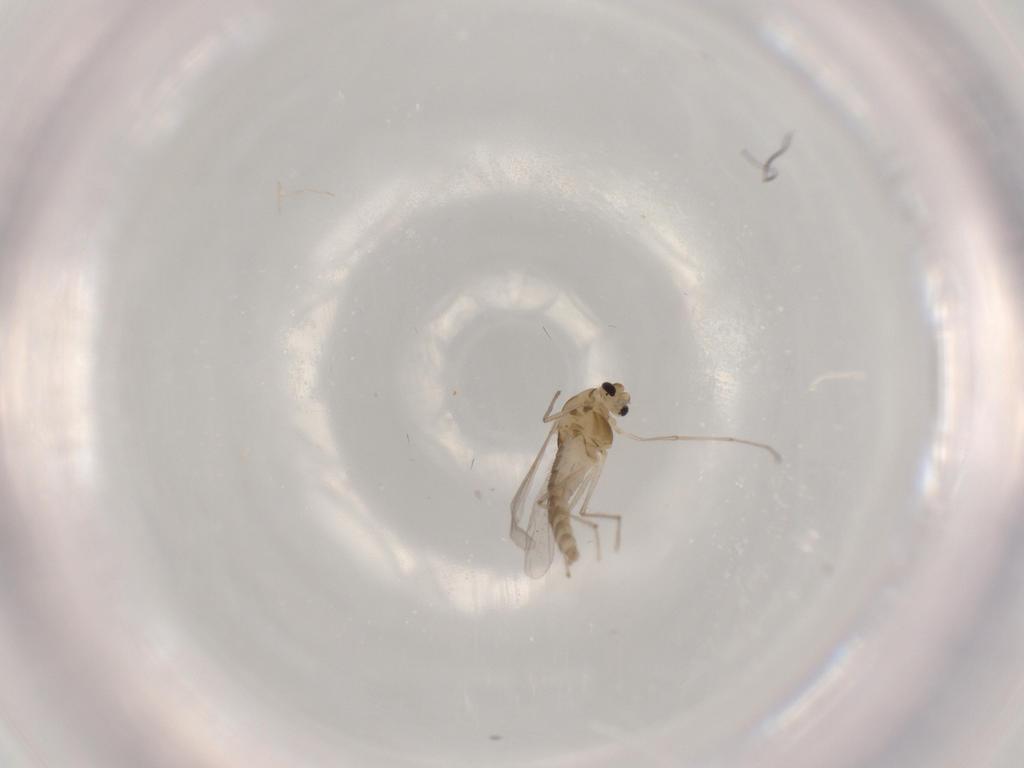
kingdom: Animalia
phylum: Arthropoda
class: Insecta
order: Diptera
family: Chironomidae
